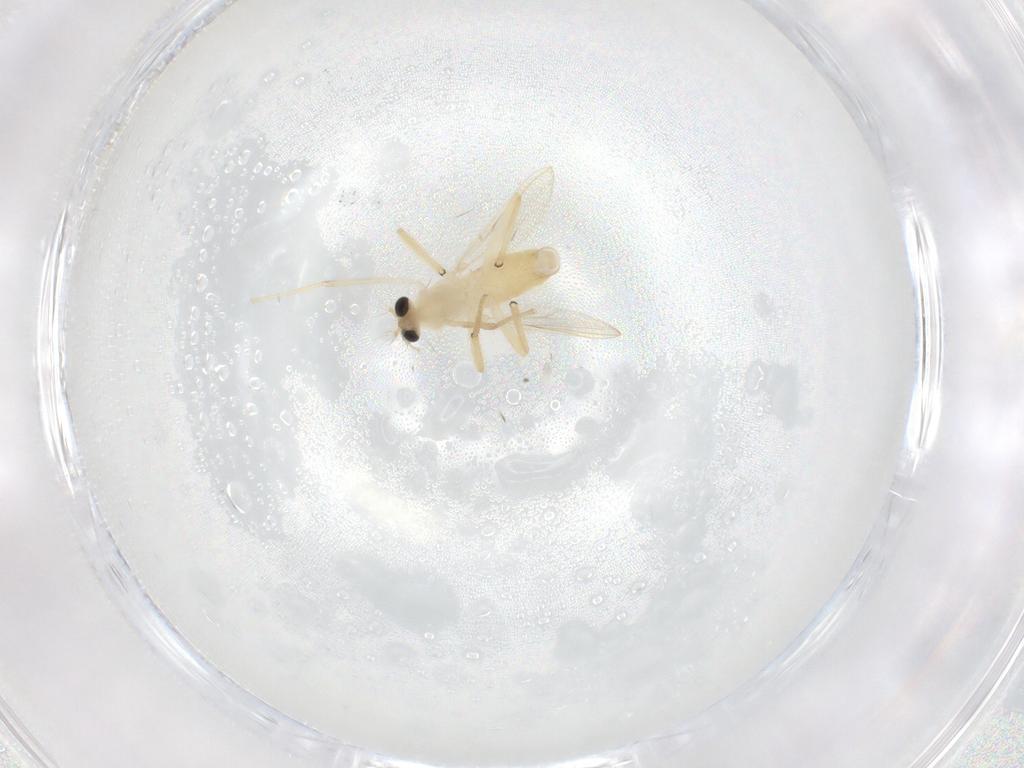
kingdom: Animalia
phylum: Arthropoda
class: Insecta
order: Diptera
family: Chironomidae
